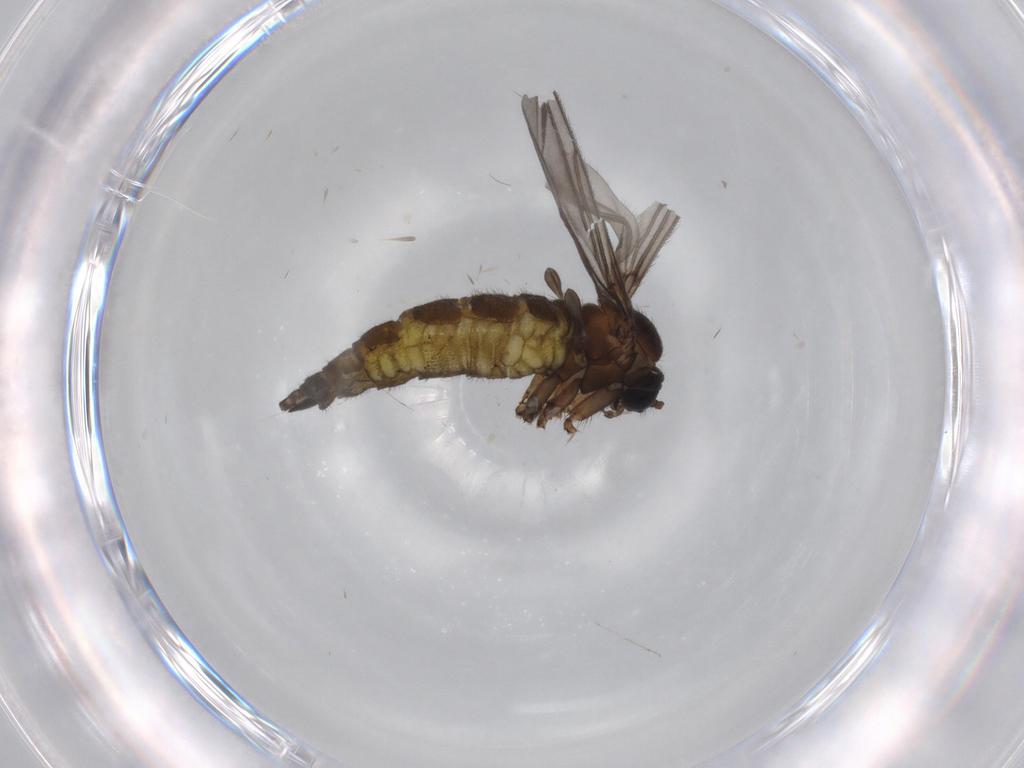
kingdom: Animalia
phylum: Arthropoda
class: Insecta
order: Diptera
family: Sciaridae
